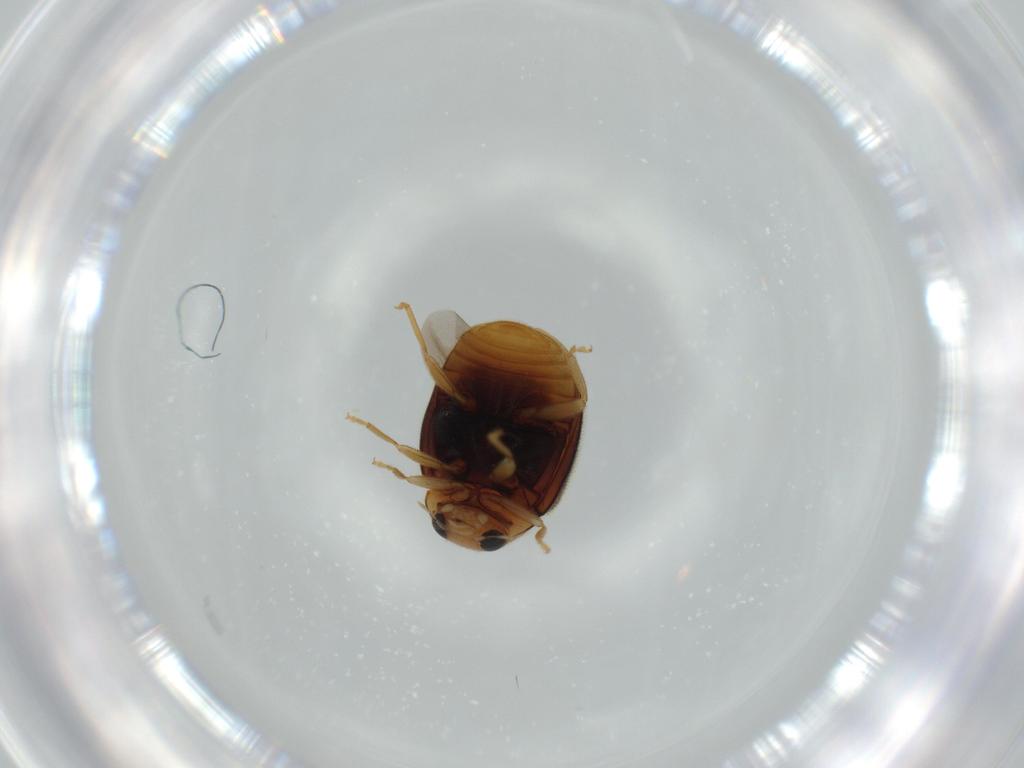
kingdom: Animalia
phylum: Arthropoda
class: Insecta
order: Coleoptera
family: Coccinellidae
